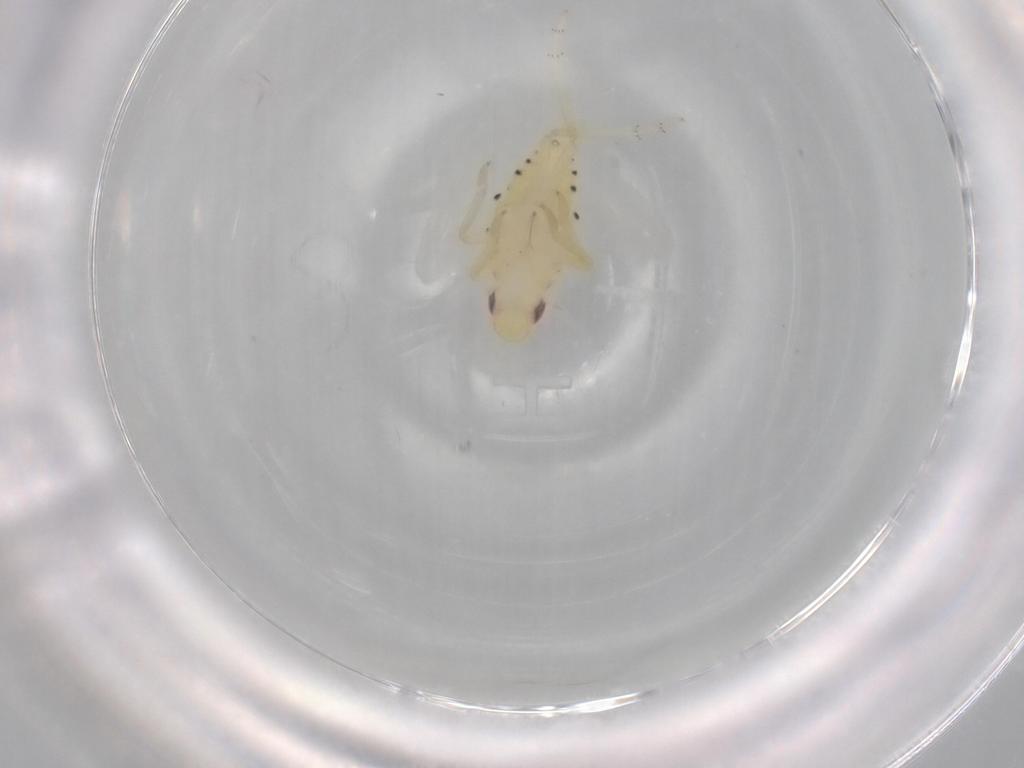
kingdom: Animalia
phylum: Arthropoda
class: Insecta
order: Hemiptera
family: Tropiduchidae
